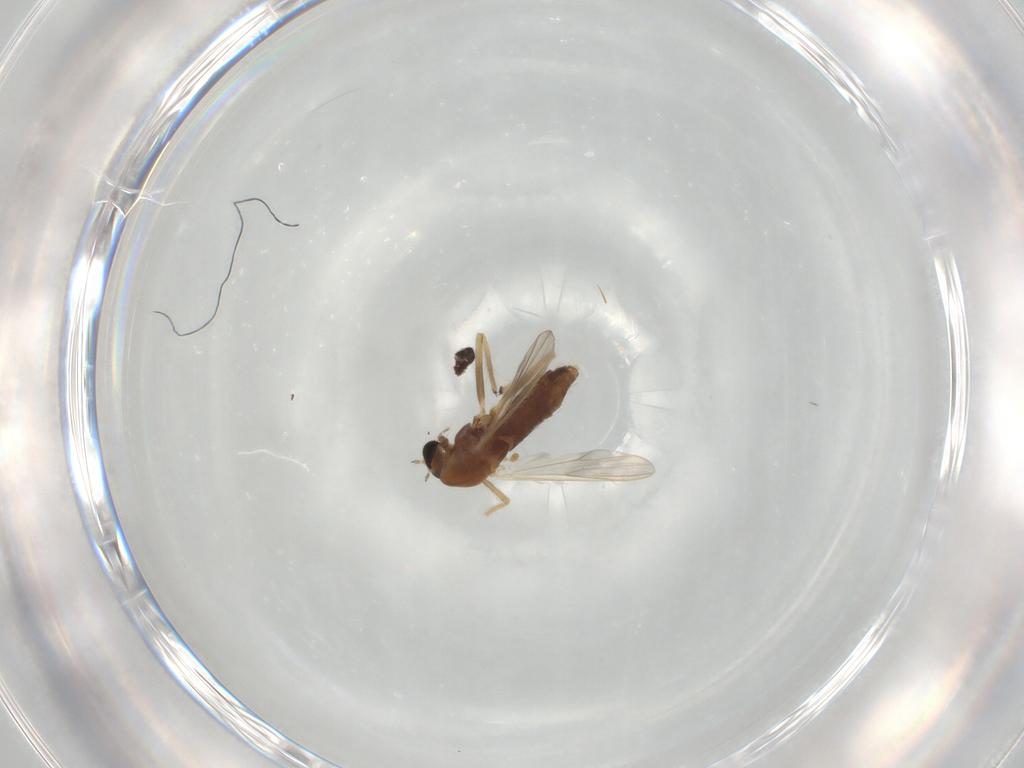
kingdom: Animalia
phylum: Arthropoda
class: Insecta
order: Diptera
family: Chironomidae
